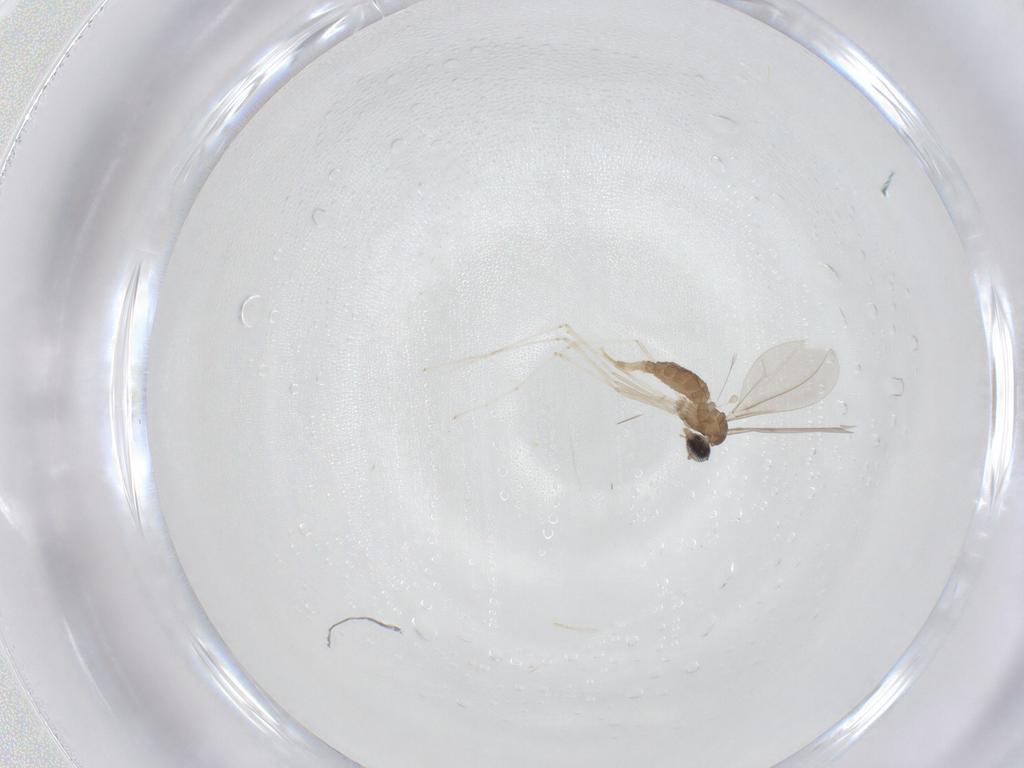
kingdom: Animalia
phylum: Arthropoda
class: Insecta
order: Diptera
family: Cecidomyiidae
